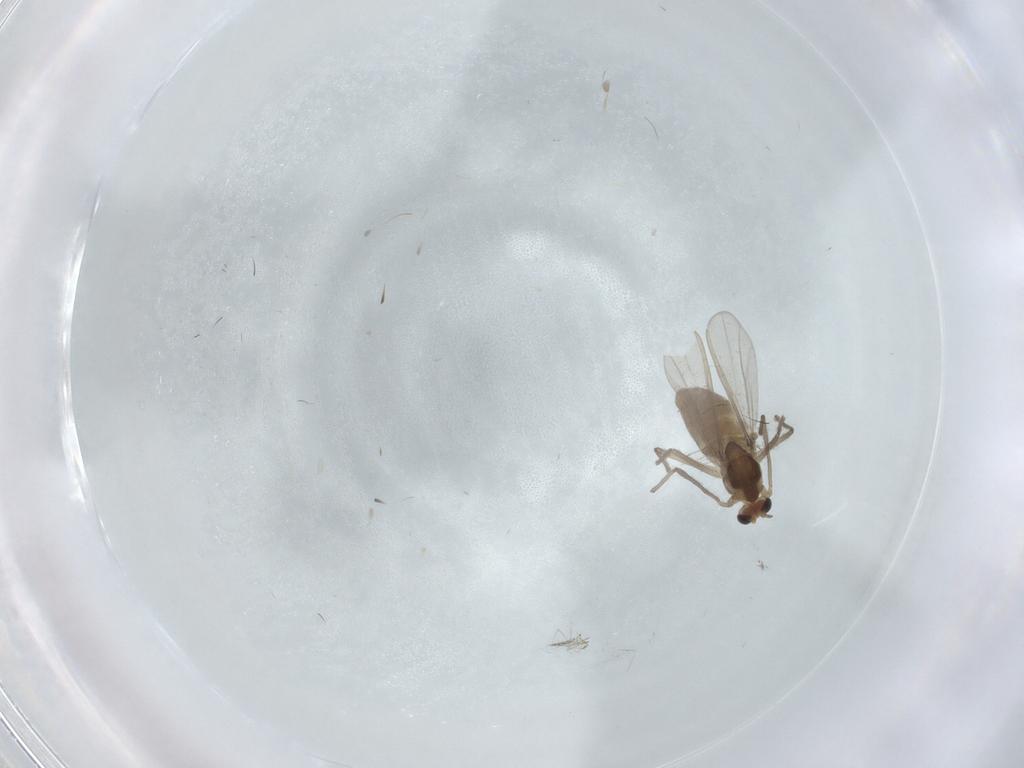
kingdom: Animalia
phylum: Arthropoda
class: Insecta
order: Diptera
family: Chironomidae
